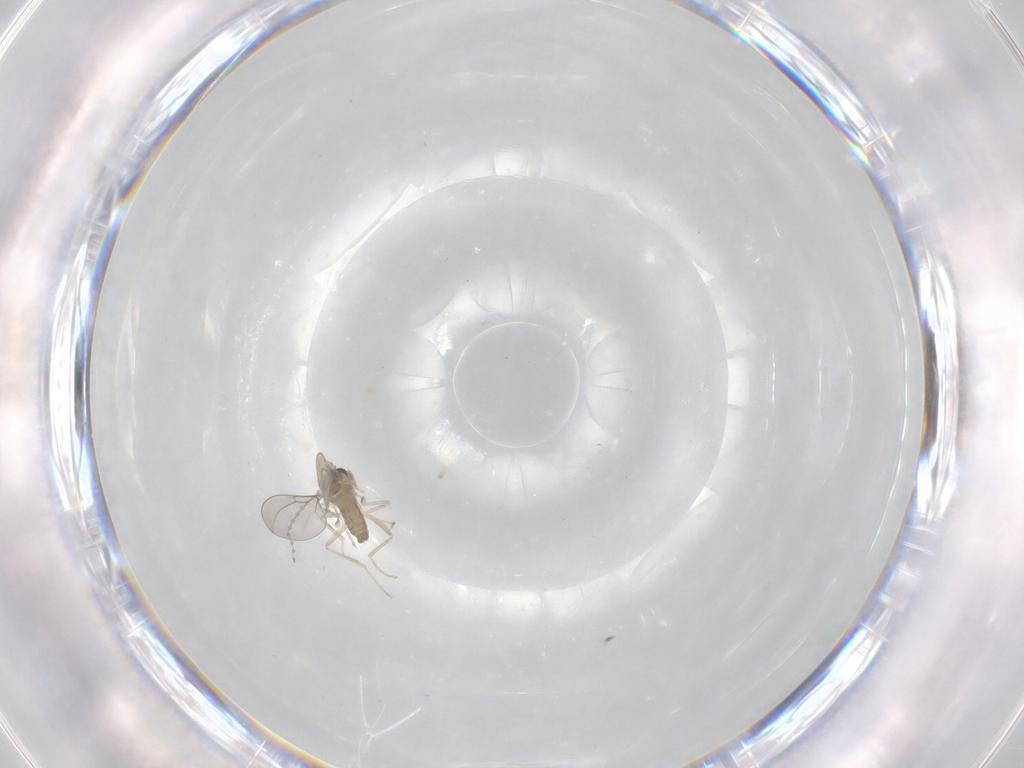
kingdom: Animalia
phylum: Arthropoda
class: Insecta
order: Diptera
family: Cecidomyiidae
